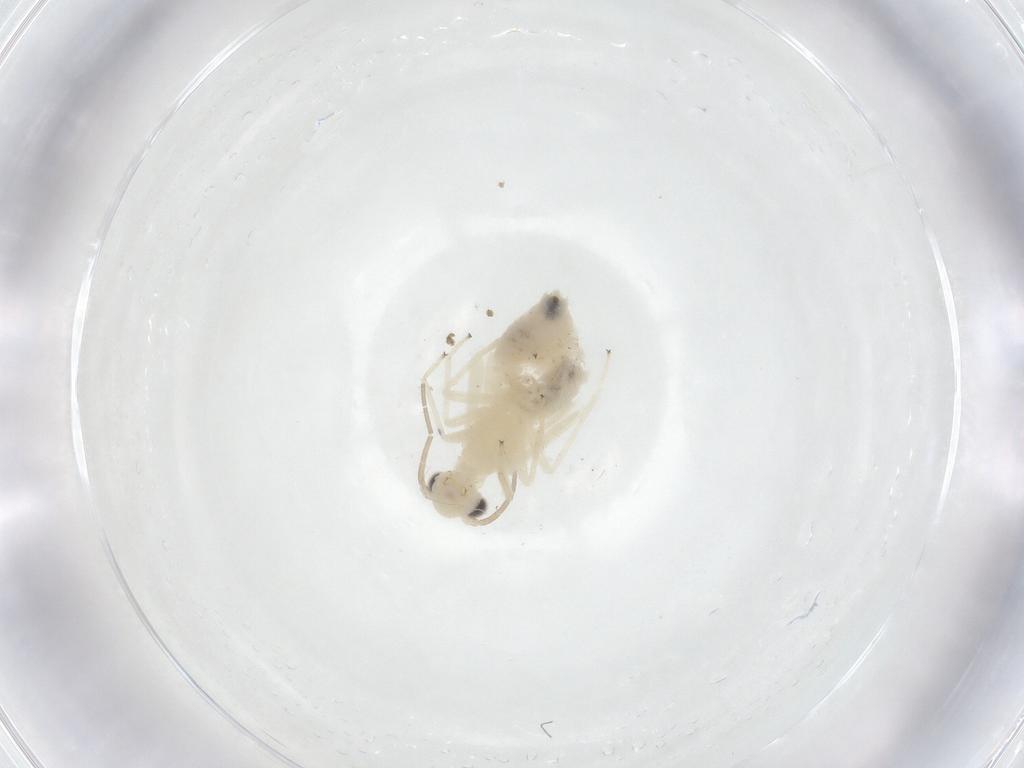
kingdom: Animalia
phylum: Arthropoda
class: Insecta
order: Psocodea
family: Caeciliusidae
